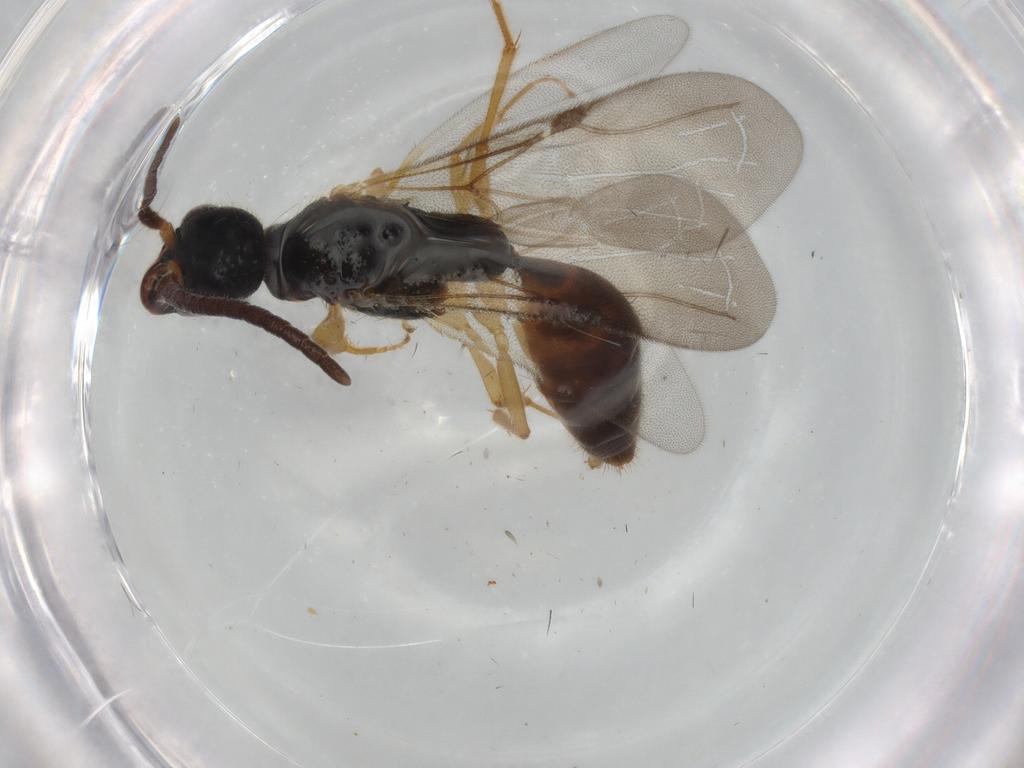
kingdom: Animalia
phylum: Arthropoda
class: Insecta
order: Hymenoptera
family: Bethylidae
